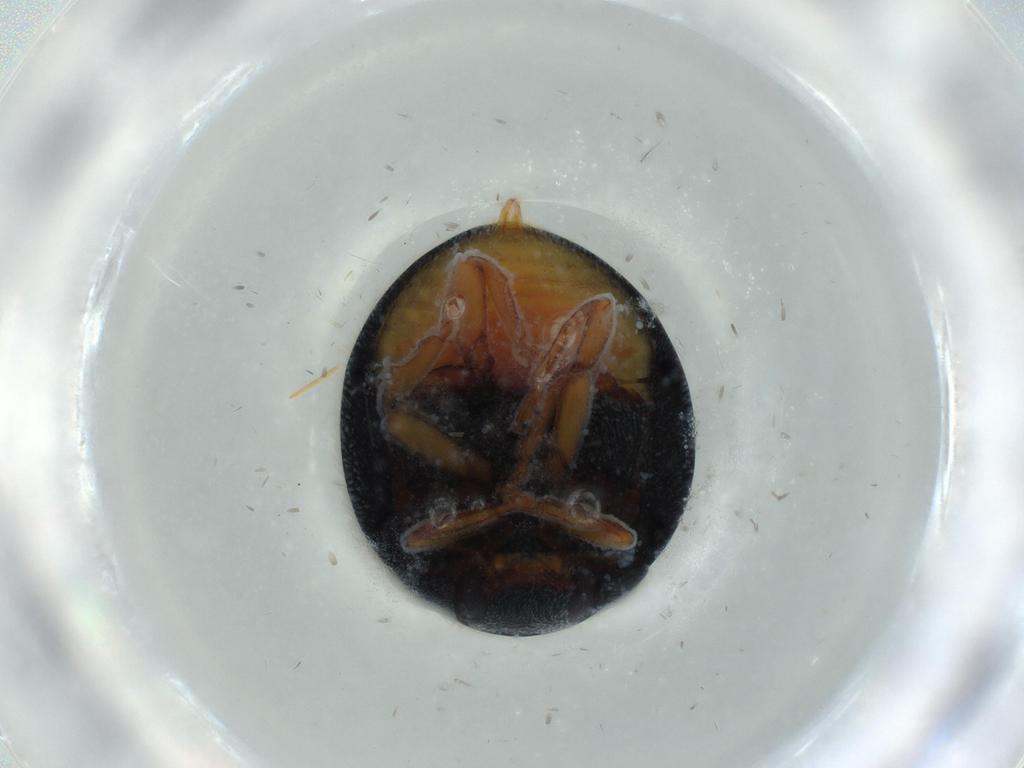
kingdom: Animalia
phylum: Arthropoda
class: Insecta
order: Coleoptera
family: Coccinellidae
